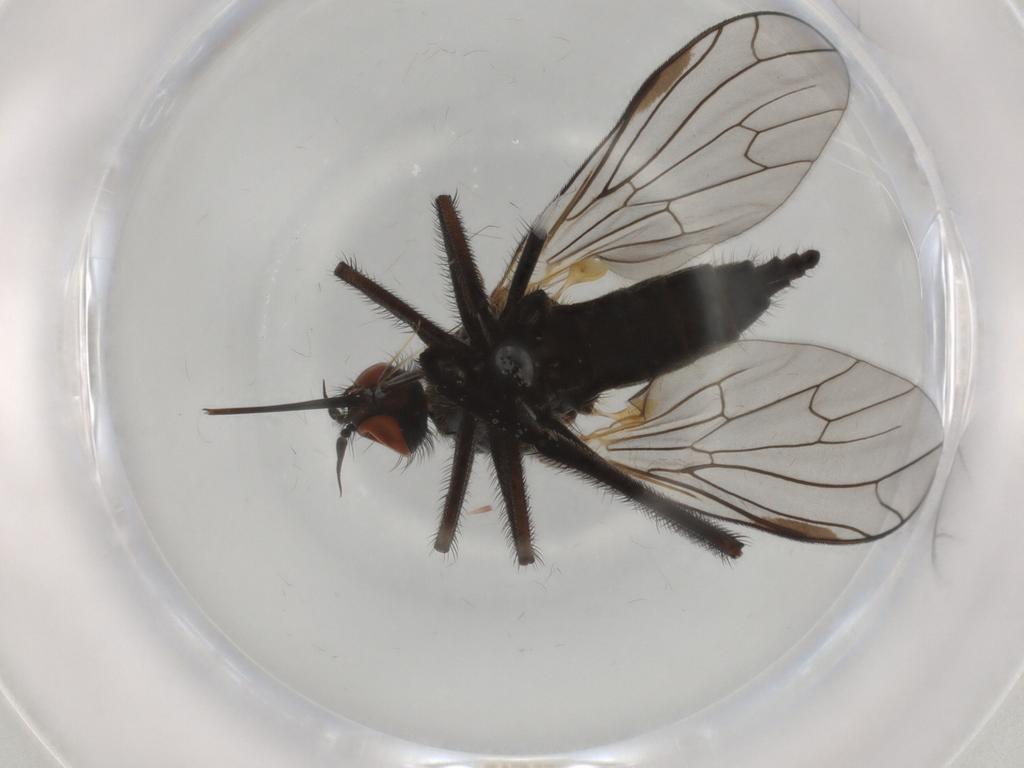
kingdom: Animalia
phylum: Arthropoda
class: Insecta
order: Diptera
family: Empididae
